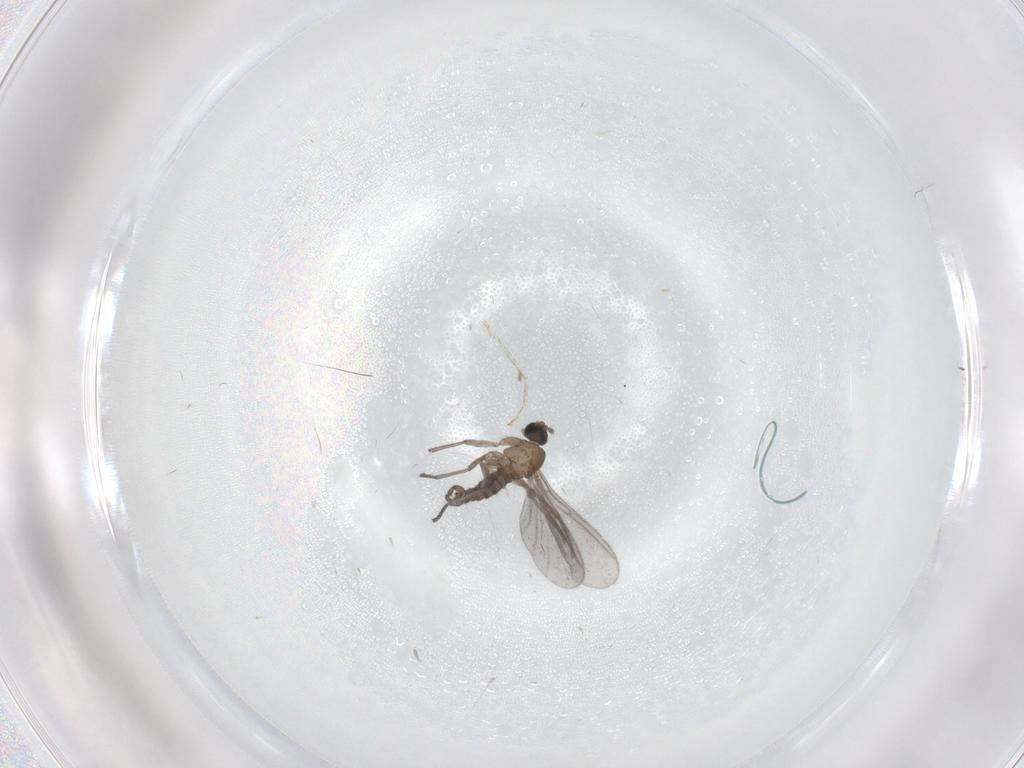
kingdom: Animalia
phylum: Arthropoda
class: Insecta
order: Diptera
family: Sciaridae
